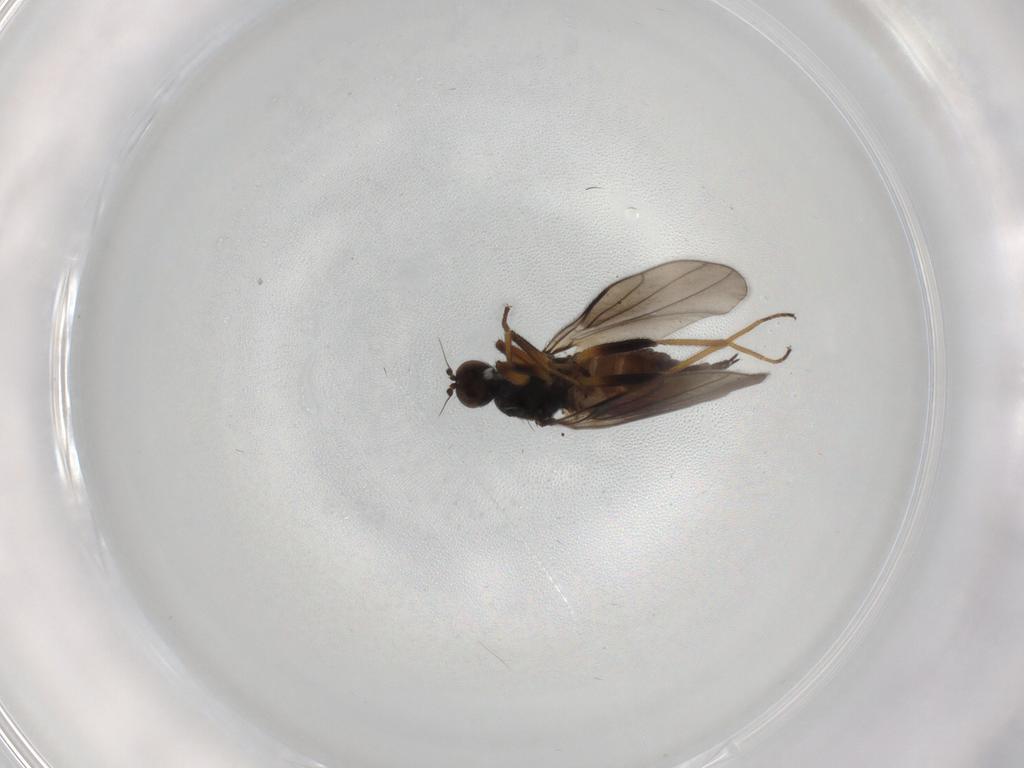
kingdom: Animalia
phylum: Arthropoda
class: Insecta
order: Diptera
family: Hybotidae
